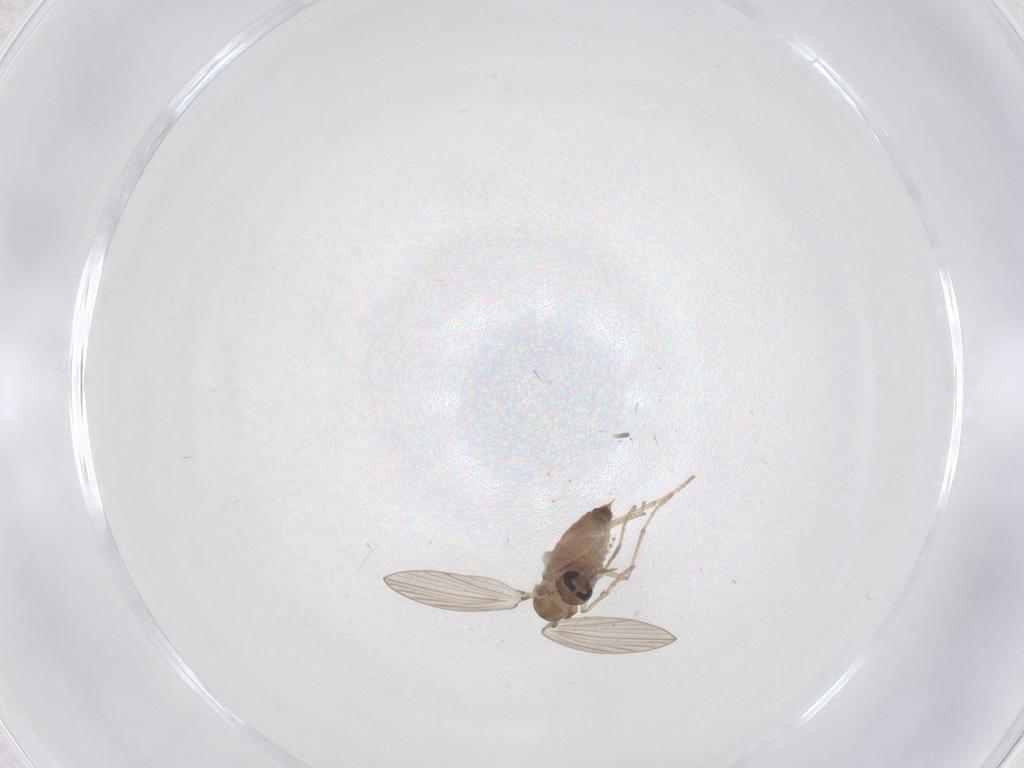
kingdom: Animalia
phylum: Arthropoda
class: Insecta
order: Diptera
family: Psychodidae
